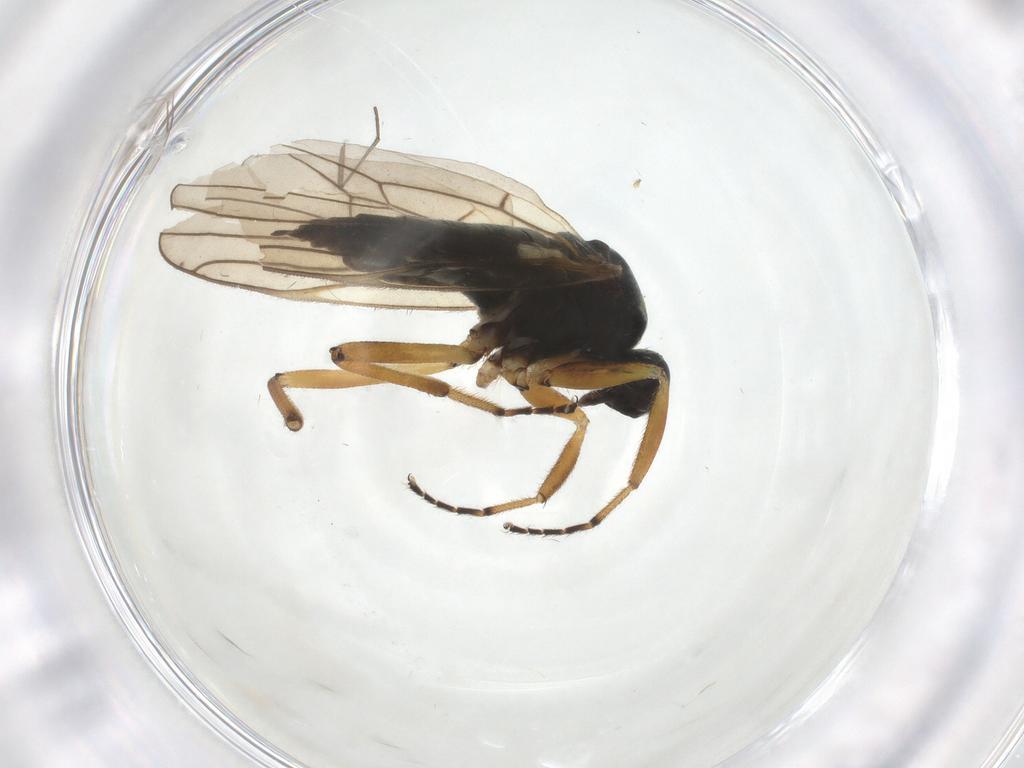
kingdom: Animalia
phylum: Arthropoda
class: Insecta
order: Diptera
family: Hybotidae
